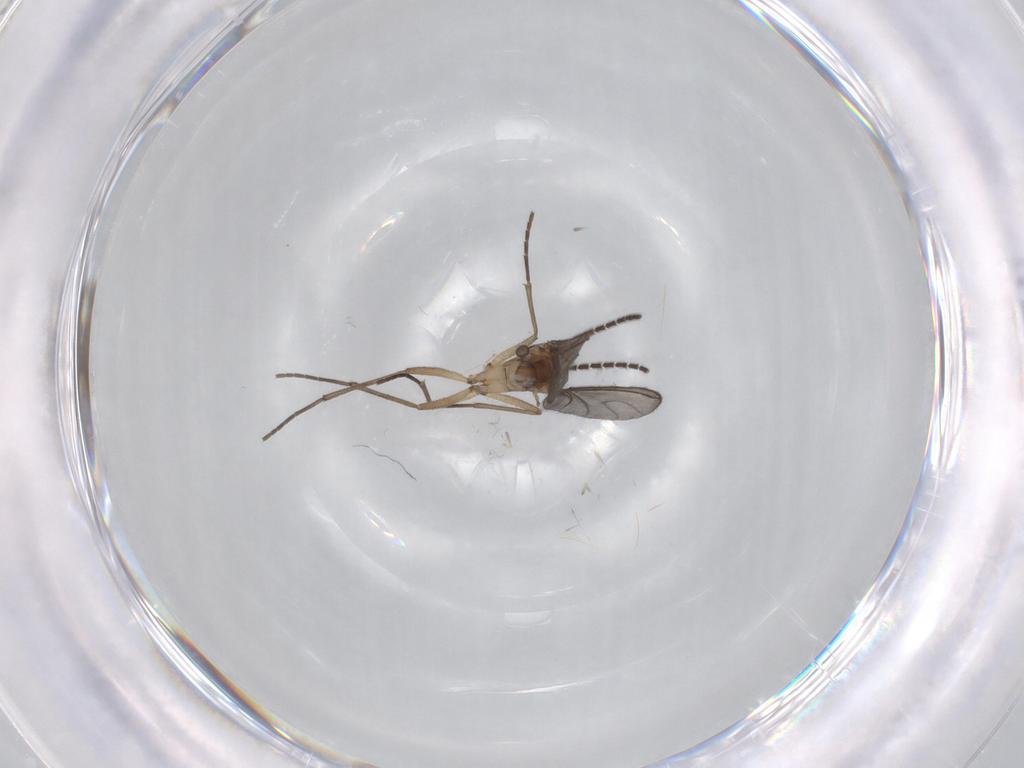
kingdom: Animalia
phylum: Arthropoda
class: Insecta
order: Diptera
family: Sciaridae
